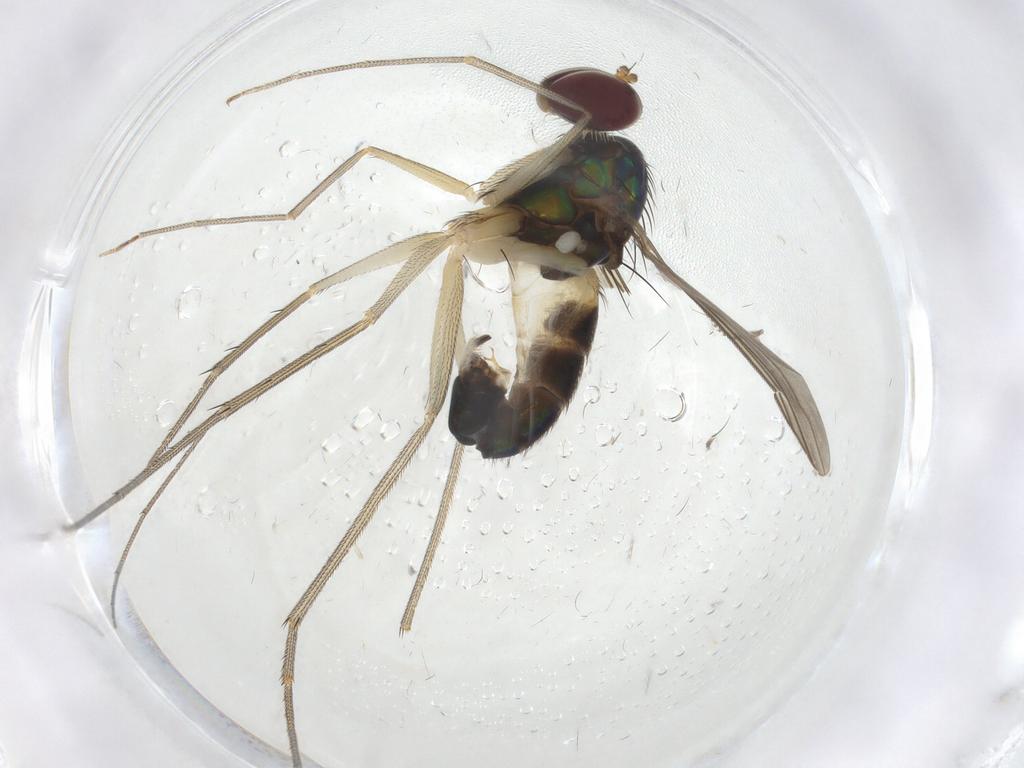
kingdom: Animalia
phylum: Arthropoda
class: Insecta
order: Diptera
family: Dolichopodidae
